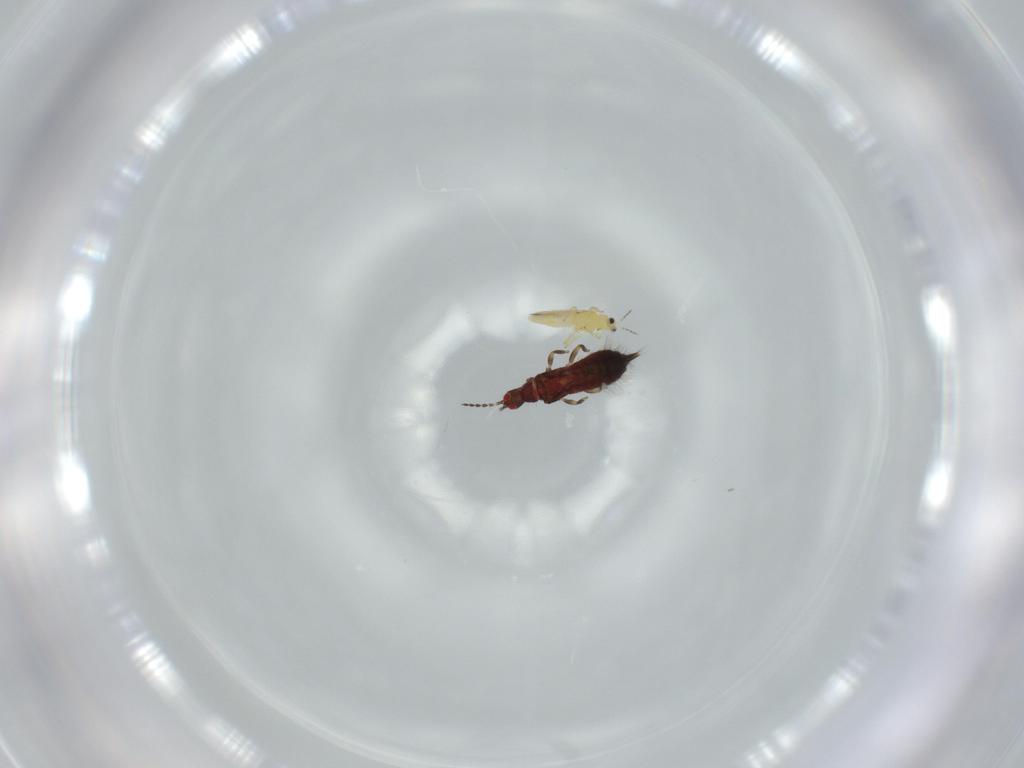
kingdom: Animalia
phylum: Arthropoda
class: Insecta
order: Thysanoptera
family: Phlaeothripidae
